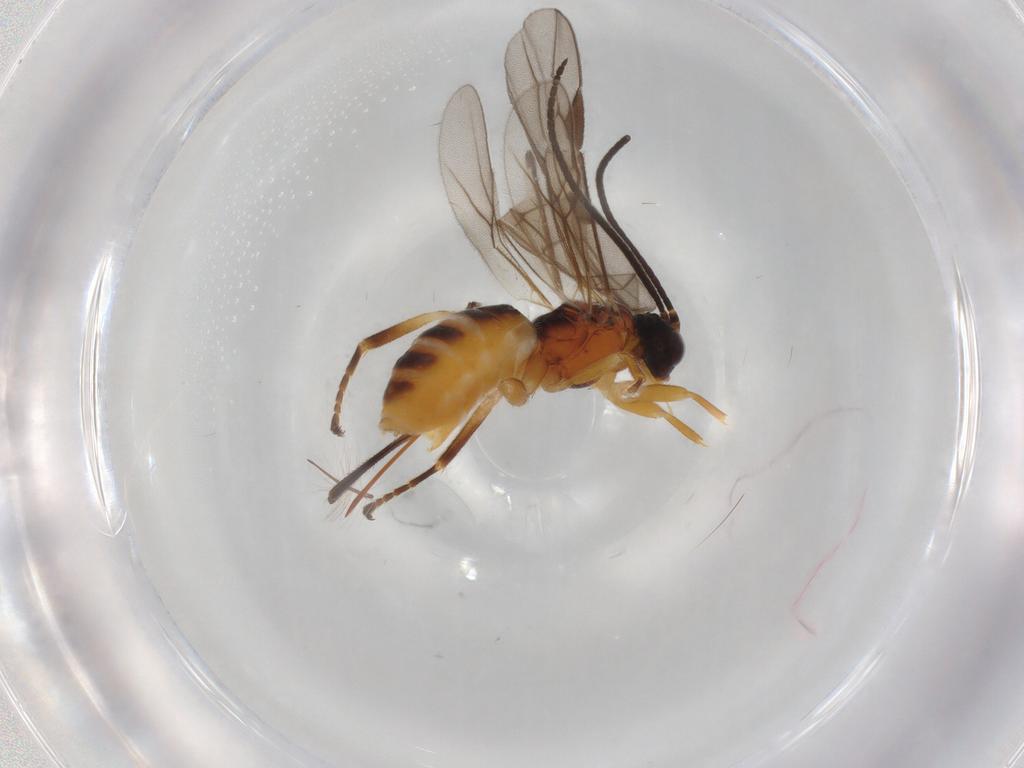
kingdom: Animalia
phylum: Arthropoda
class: Insecta
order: Hymenoptera
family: Braconidae
